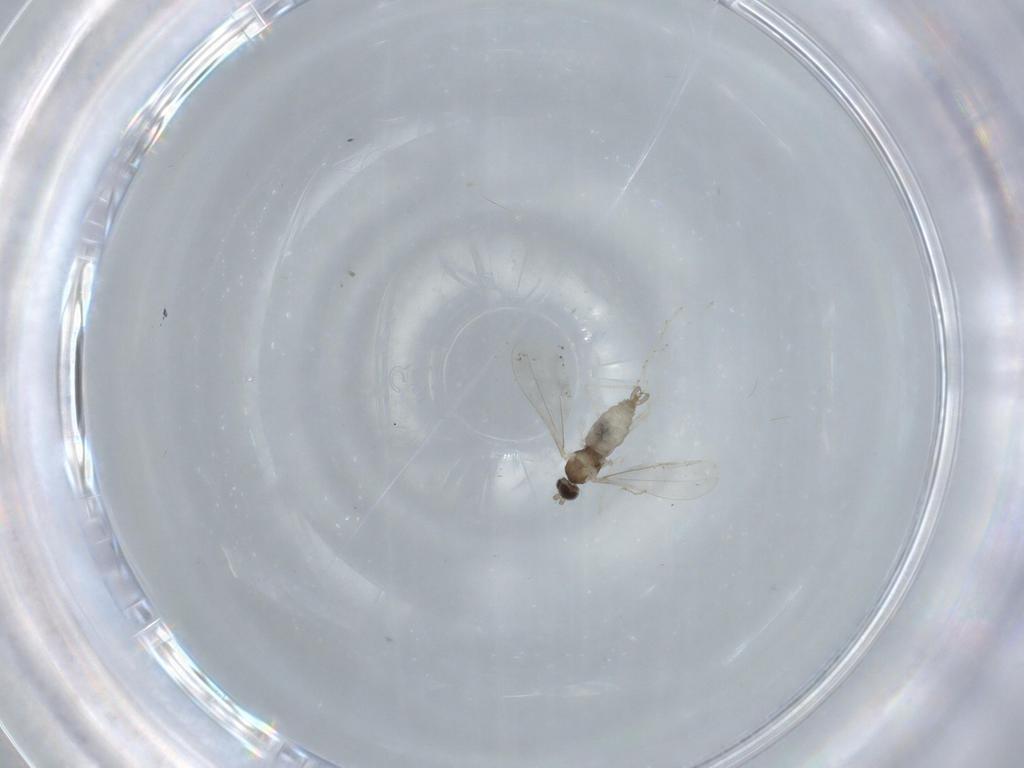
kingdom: Animalia
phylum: Arthropoda
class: Insecta
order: Diptera
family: Cecidomyiidae
